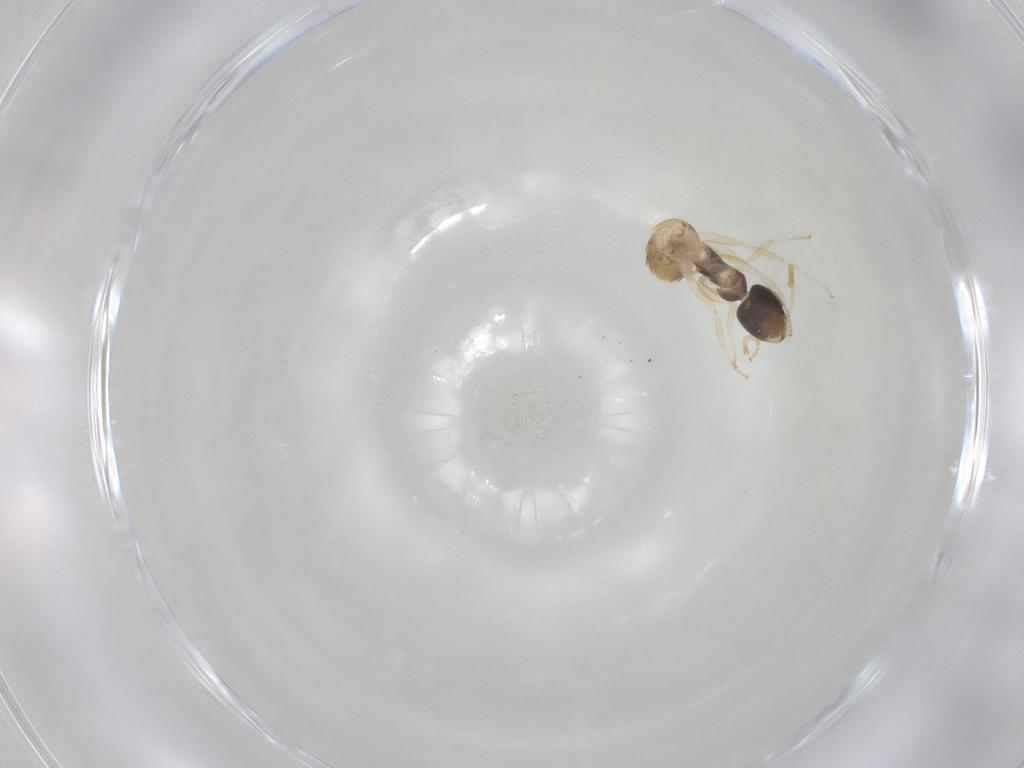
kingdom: Animalia
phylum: Arthropoda
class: Insecta
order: Hymenoptera
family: Formicidae
